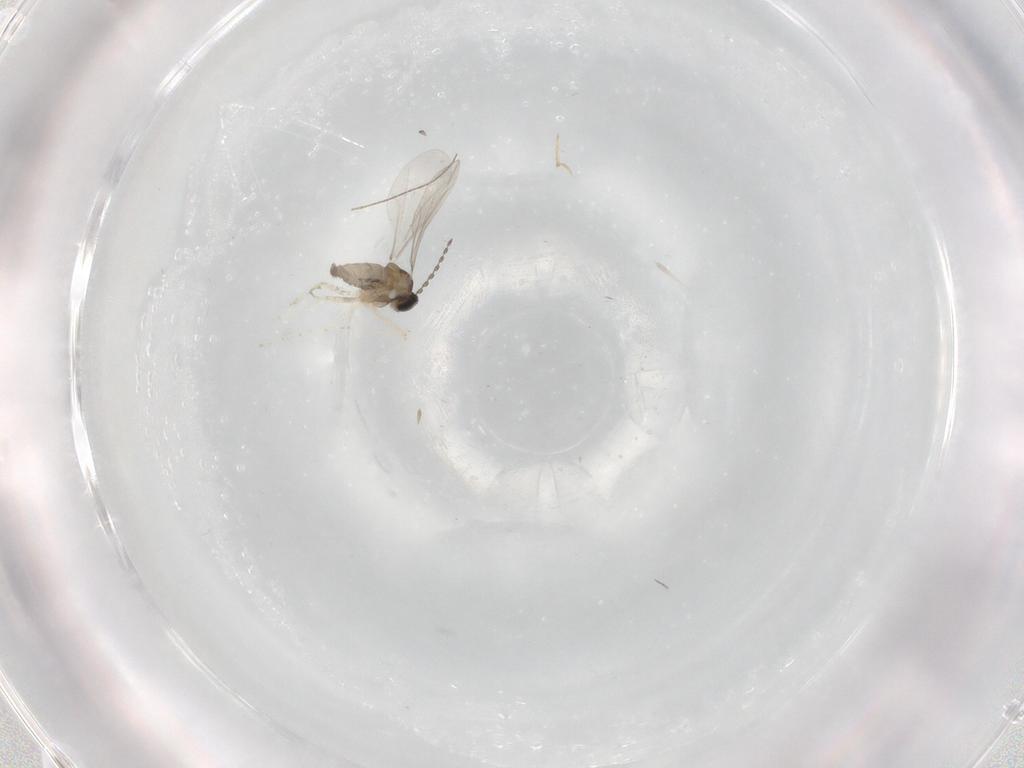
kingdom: Animalia
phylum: Arthropoda
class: Insecta
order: Diptera
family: Cecidomyiidae
